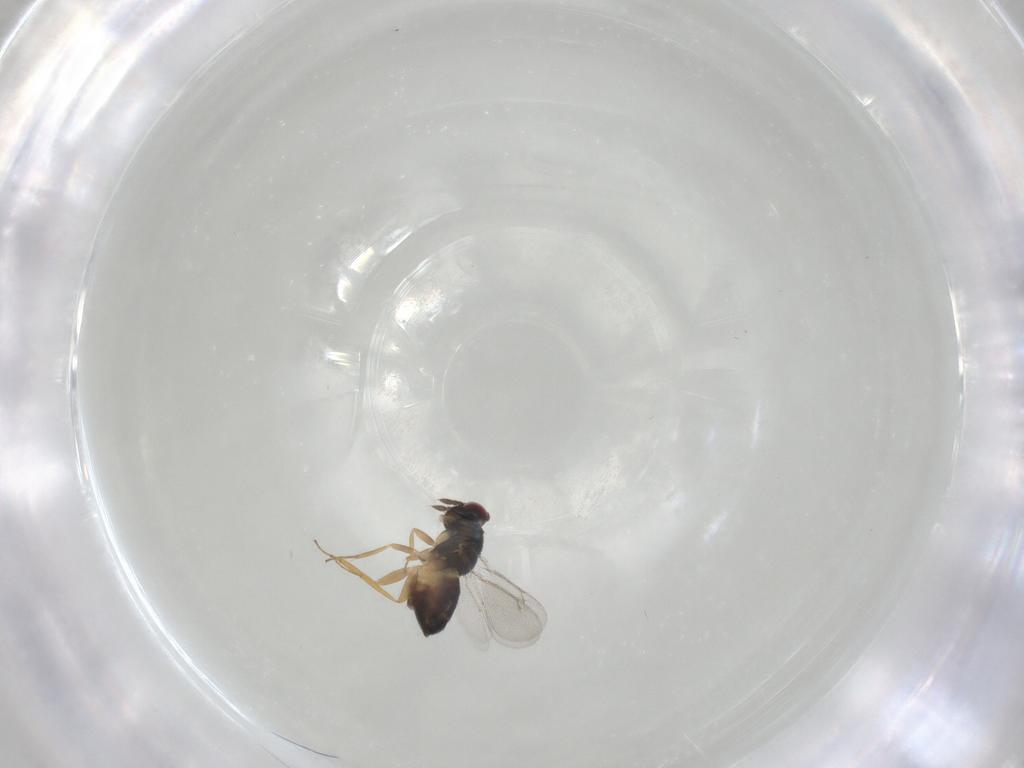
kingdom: Animalia
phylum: Arthropoda
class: Insecta
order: Hymenoptera
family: Eulophidae
